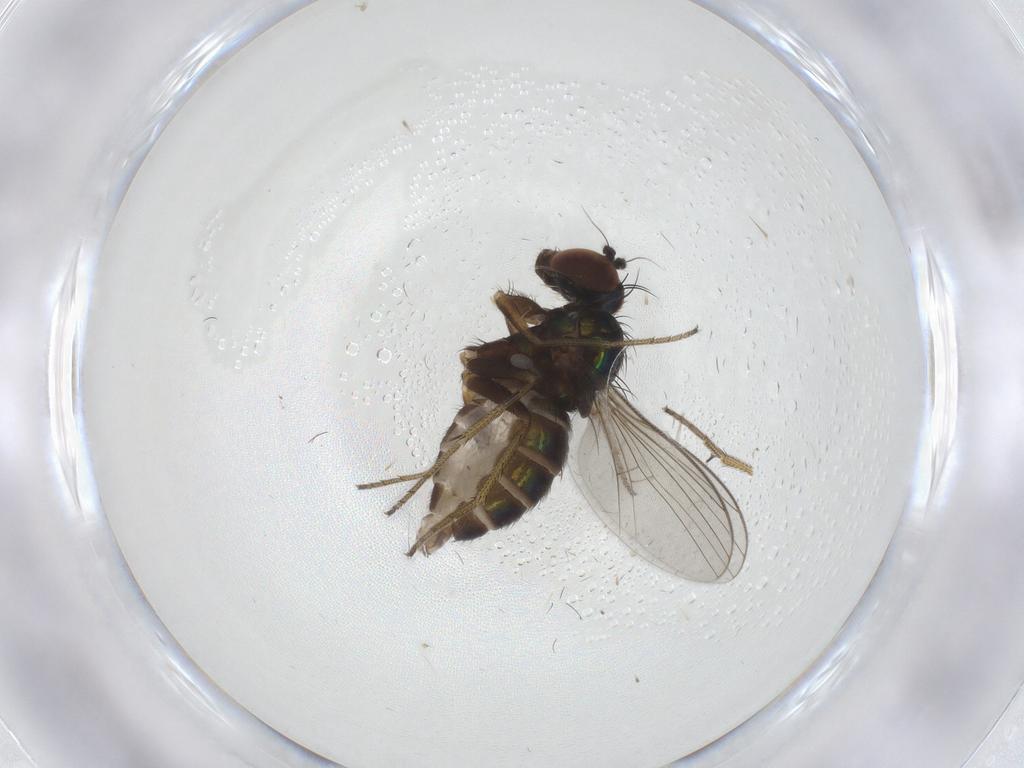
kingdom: Animalia
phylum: Arthropoda
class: Insecta
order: Diptera
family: Dolichopodidae
